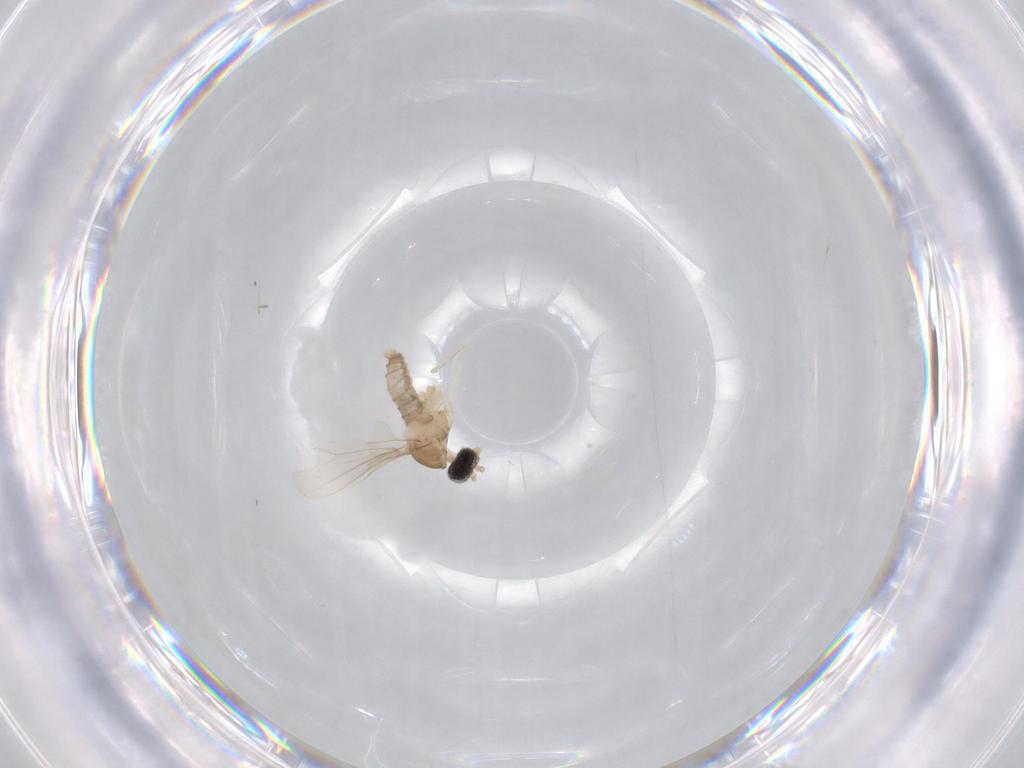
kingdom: Animalia
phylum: Arthropoda
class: Insecta
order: Diptera
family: Cecidomyiidae
